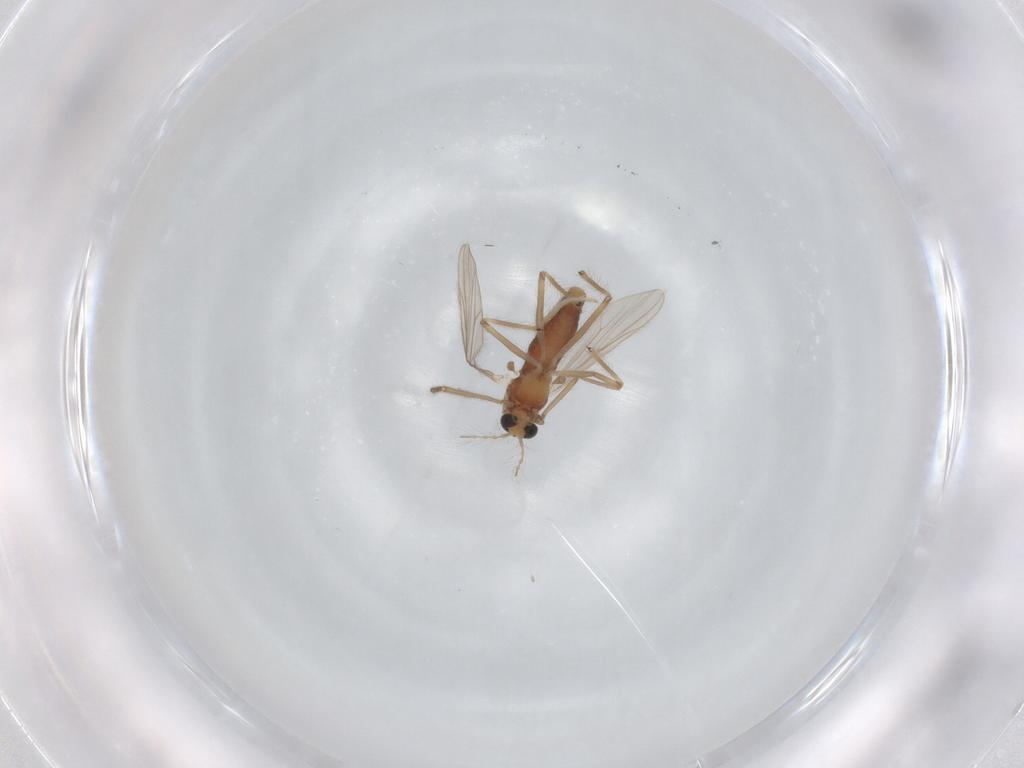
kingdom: Animalia
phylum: Arthropoda
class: Insecta
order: Diptera
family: Chironomidae
